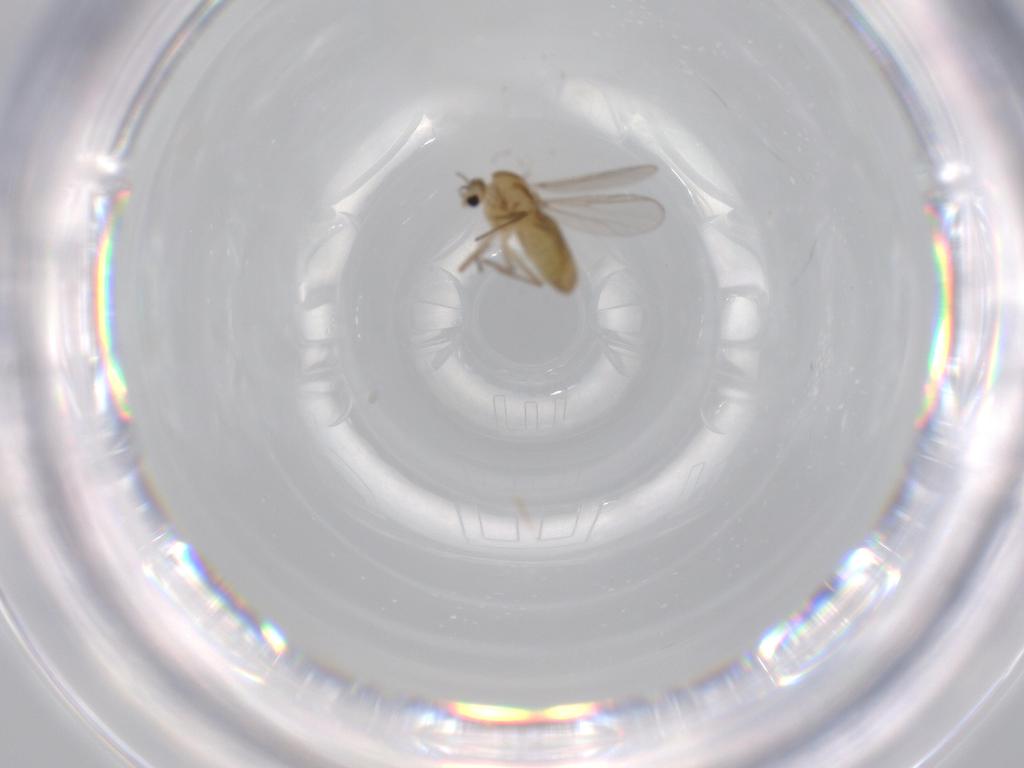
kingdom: Animalia
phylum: Arthropoda
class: Insecta
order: Diptera
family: Chironomidae
